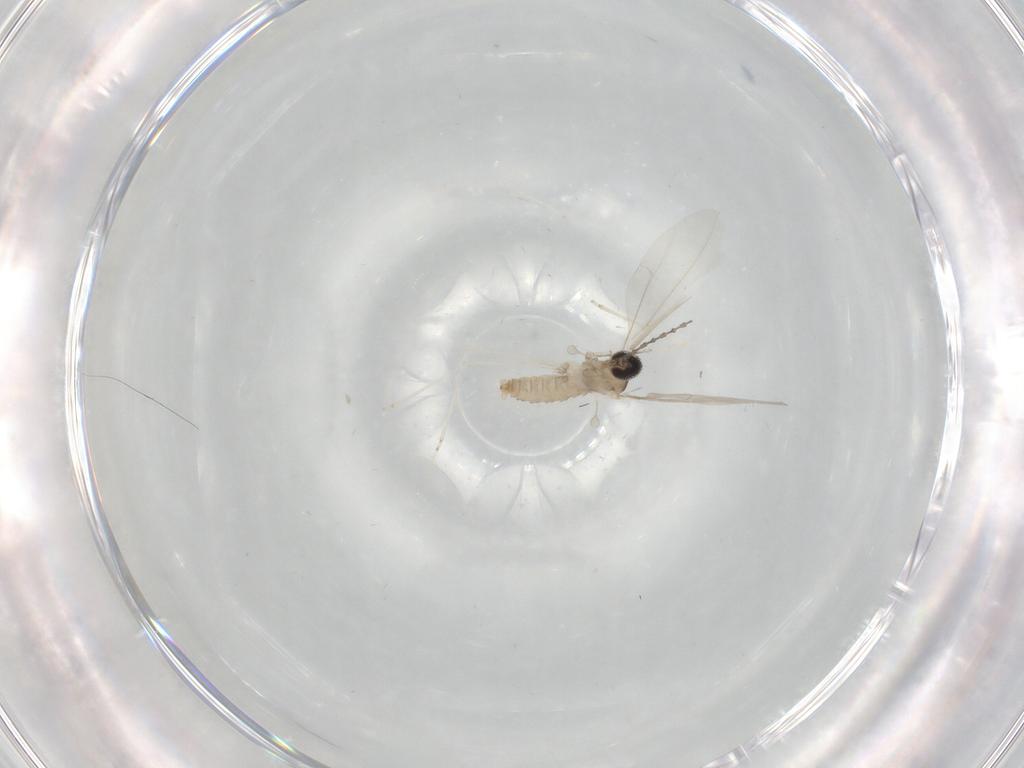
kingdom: Animalia
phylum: Arthropoda
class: Insecta
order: Diptera
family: Cecidomyiidae
